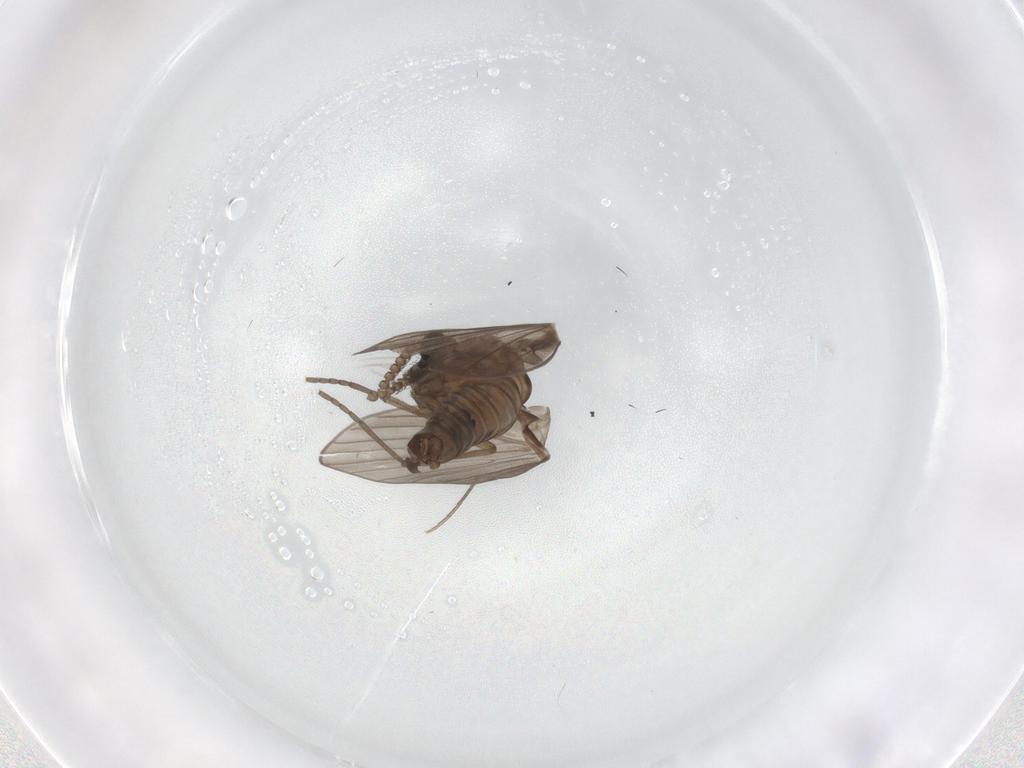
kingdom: Animalia
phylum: Arthropoda
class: Insecta
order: Diptera
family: Psychodidae
